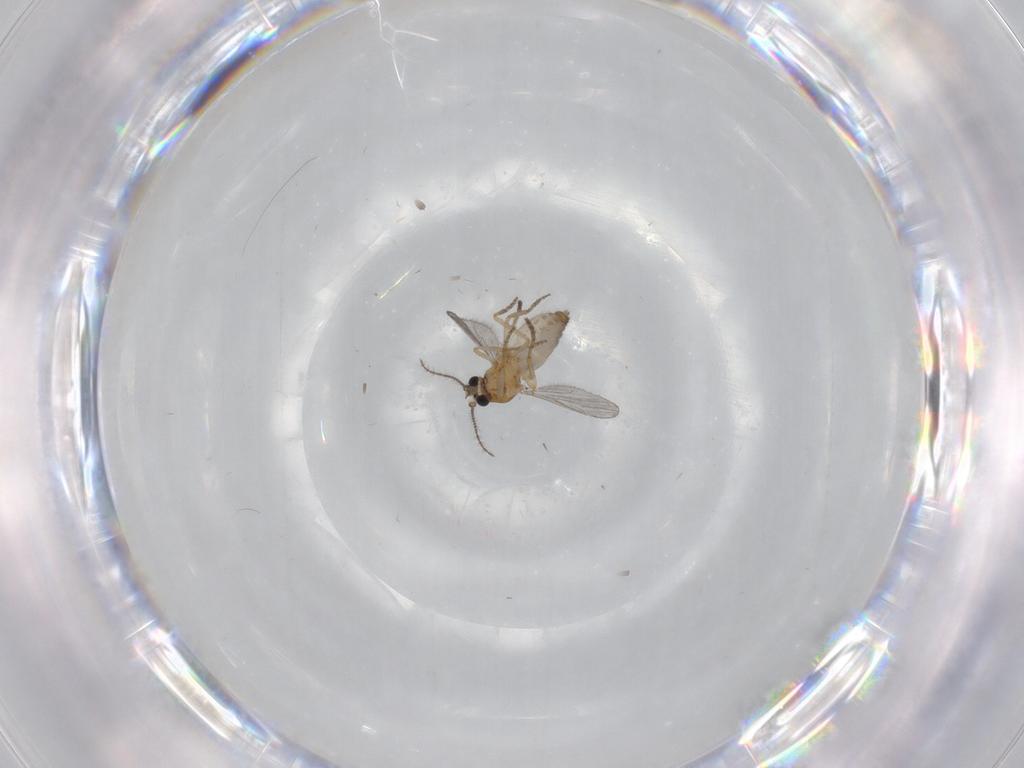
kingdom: Animalia
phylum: Arthropoda
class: Insecta
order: Diptera
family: Ceratopogonidae
